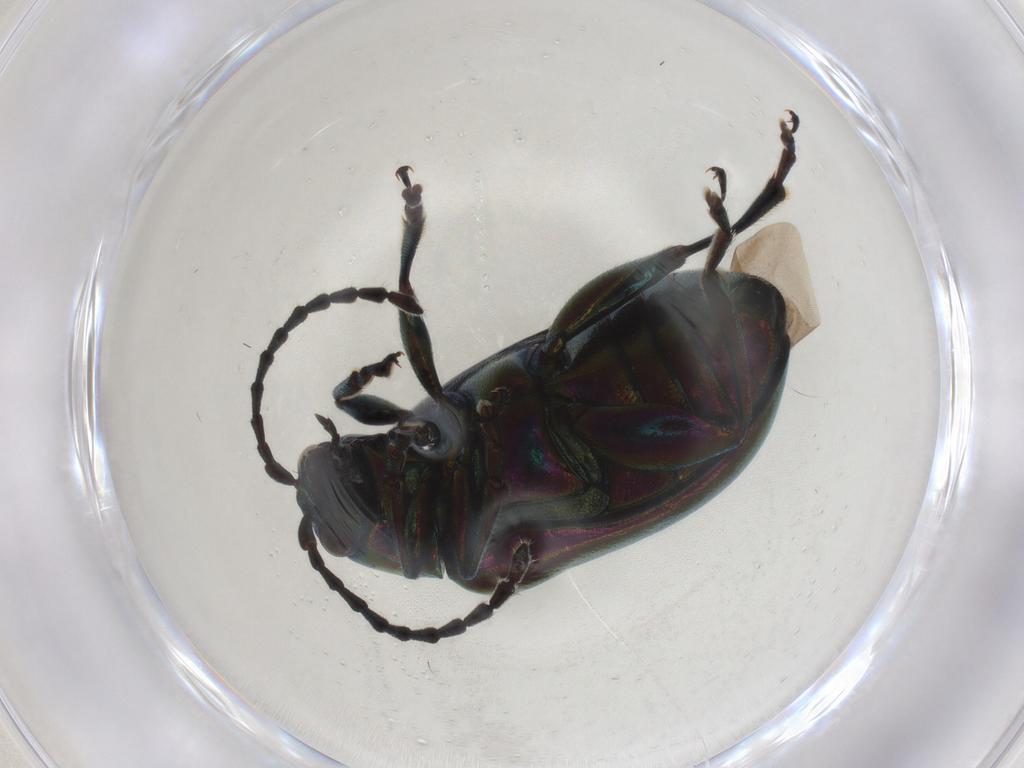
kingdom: Animalia
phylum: Arthropoda
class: Insecta
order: Coleoptera
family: Chrysomelidae
